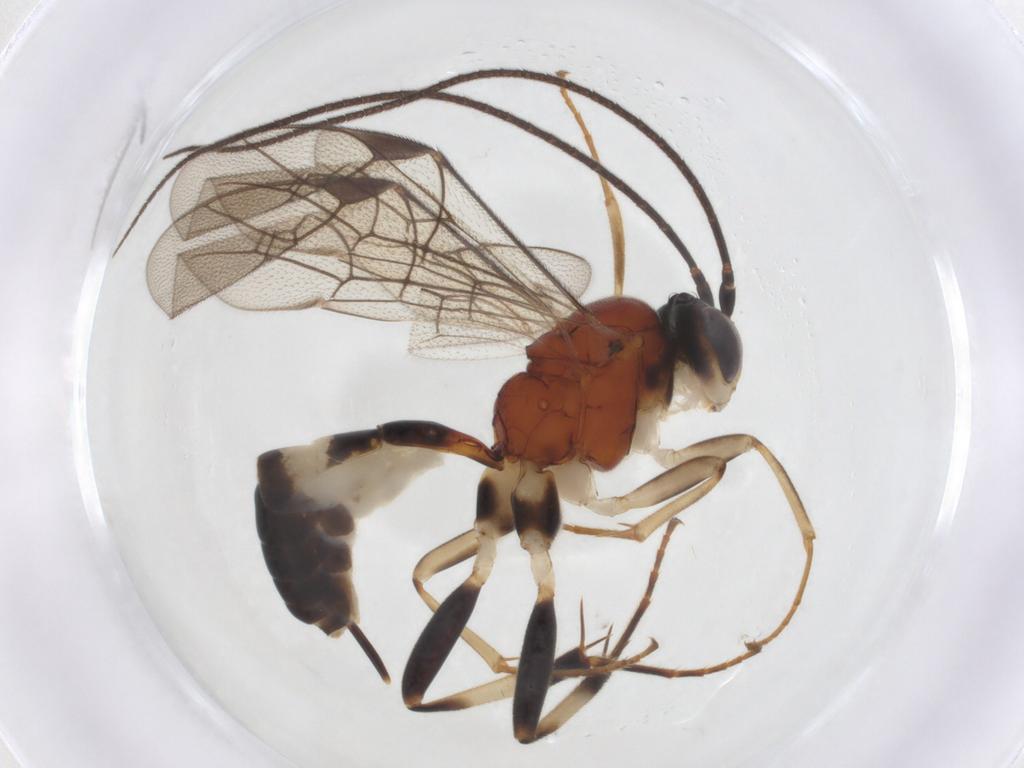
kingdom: Animalia
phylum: Arthropoda
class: Insecta
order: Hymenoptera
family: Ichneumonidae
